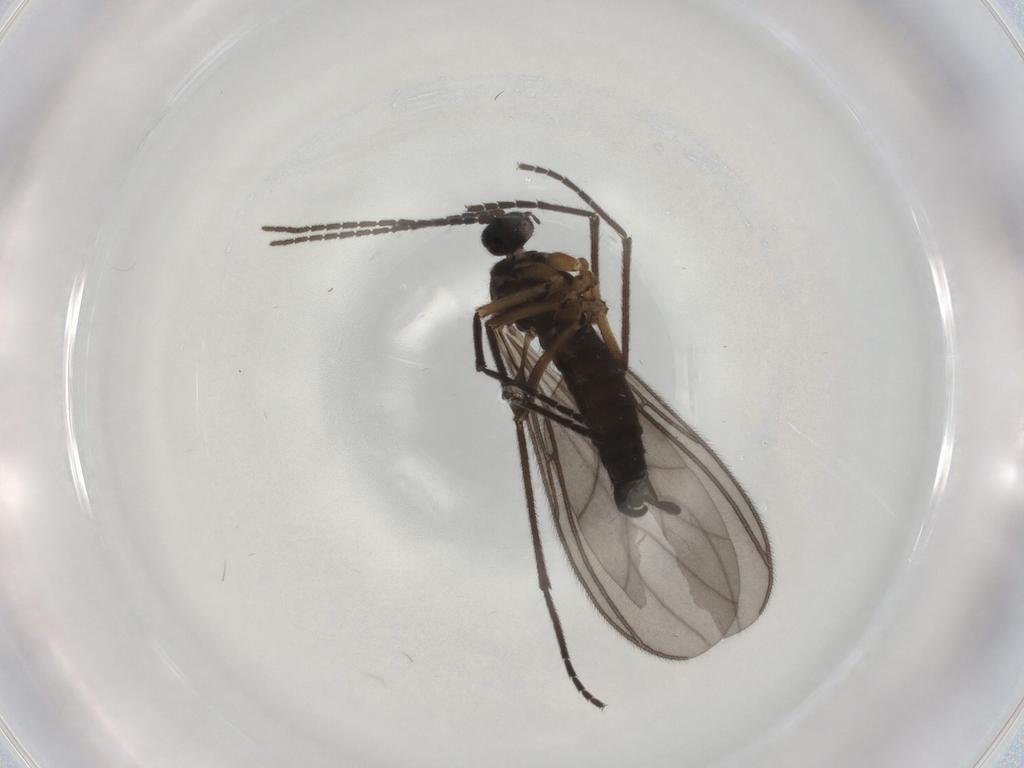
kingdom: Animalia
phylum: Arthropoda
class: Insecta
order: Diptera
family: Sciaridae
